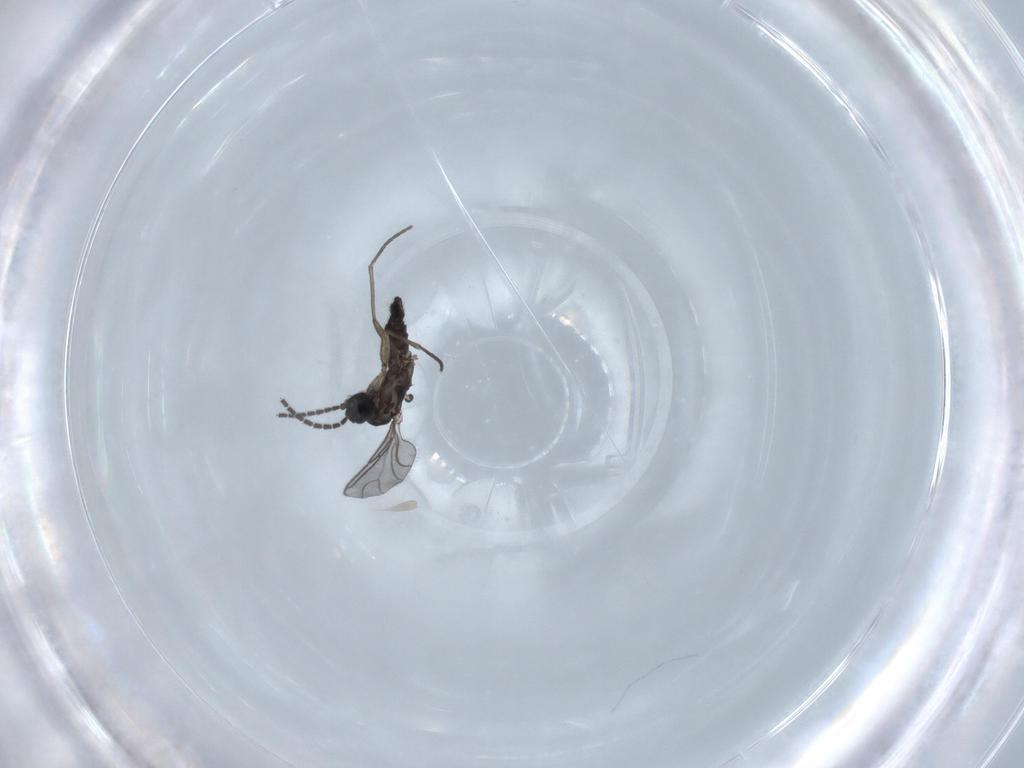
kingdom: Animalia
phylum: Arthropoda
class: Insecta
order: Diptera
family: Sciaridae
